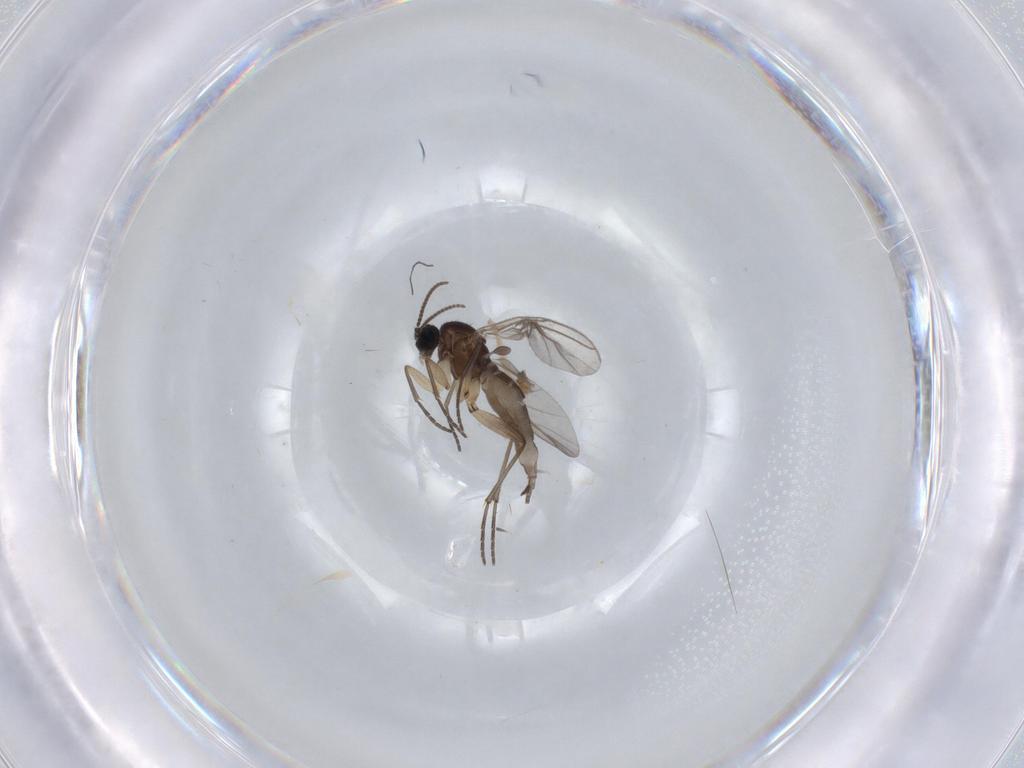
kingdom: Animalia
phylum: Arthropoda
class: Insecta
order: Diptera
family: Sciaridae
